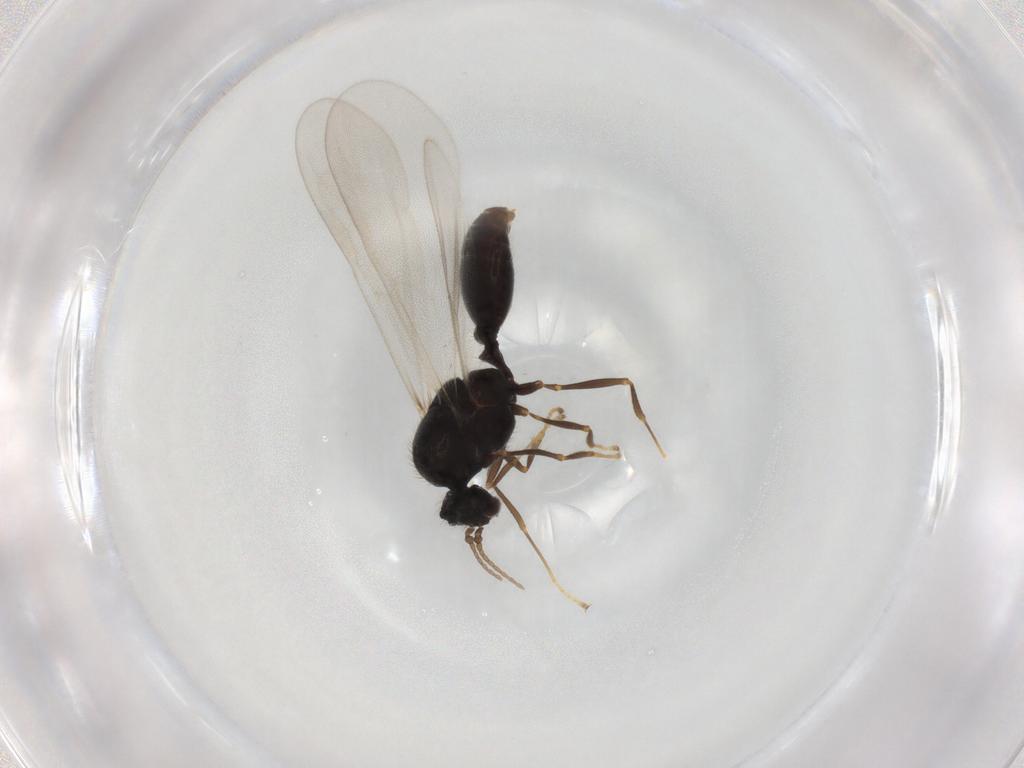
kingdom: Animalia
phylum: Arthropoda
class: Insecta
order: Hymenoptera
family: Formicidae
